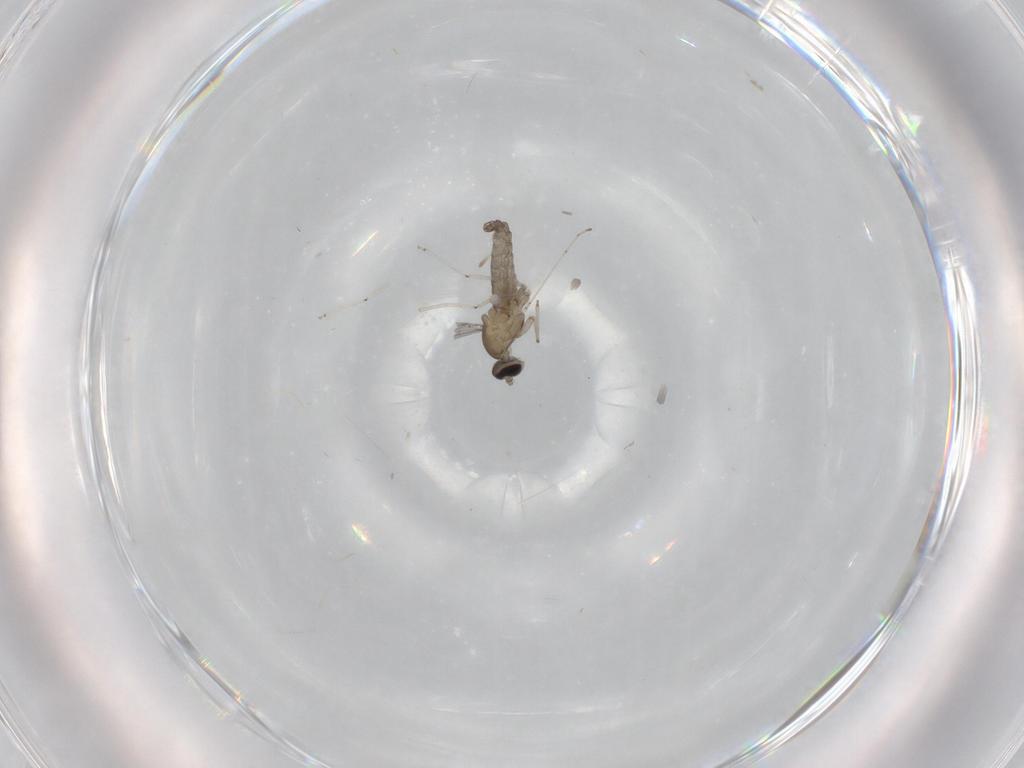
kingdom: Animalia
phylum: Arthropoda
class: Insecta
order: Diptera
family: Cecidomyiidae
